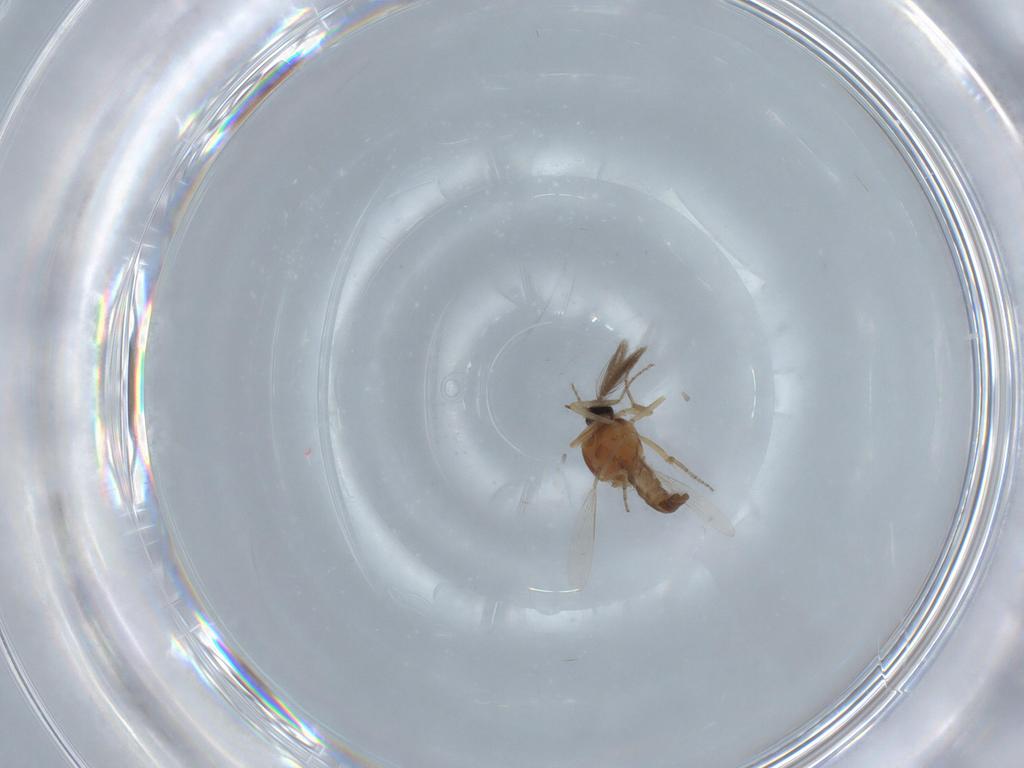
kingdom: Animalia
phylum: Arthropoda
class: Insecta
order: Diptera
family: Ceratopogonidae
